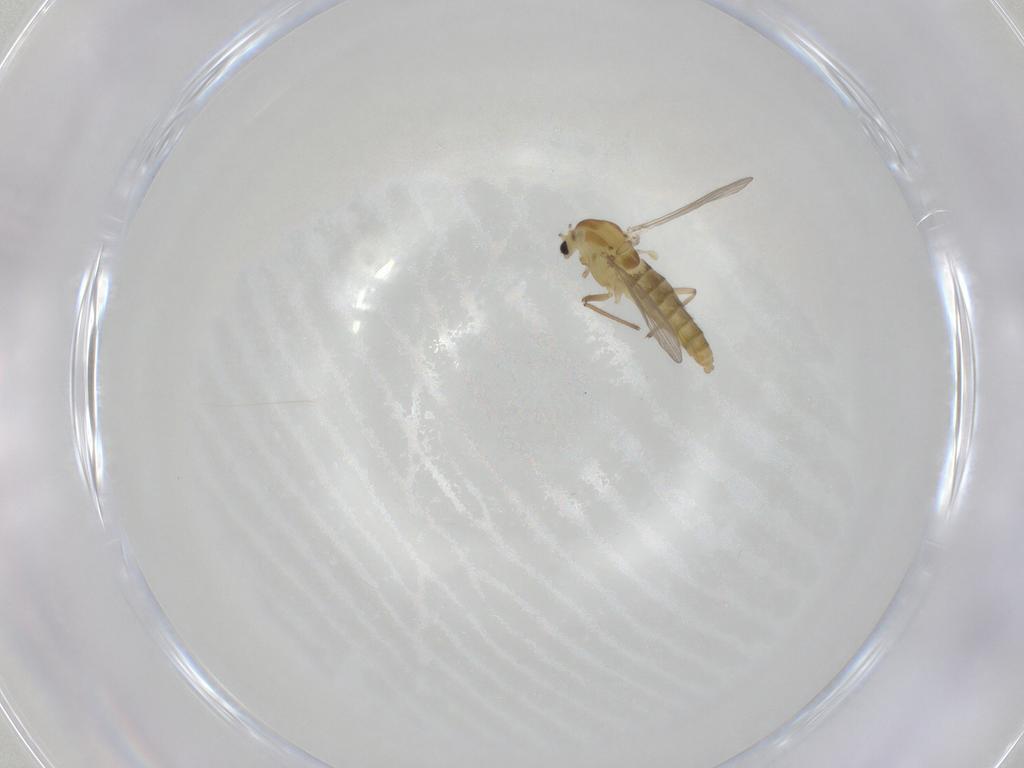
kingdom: Animalia
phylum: Arthropoda
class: Insecta
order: Diptera
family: Chironomidae
